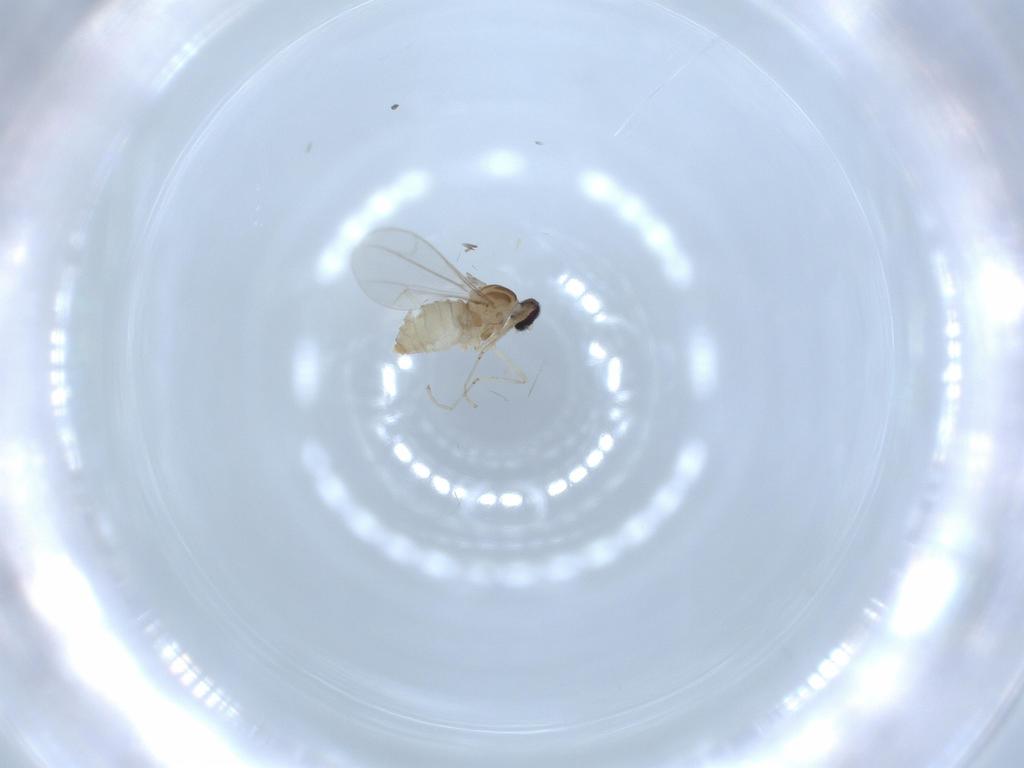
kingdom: Animalia
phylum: Arthropoda
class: Insecta
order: Diptera
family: Cecidomyiidae
